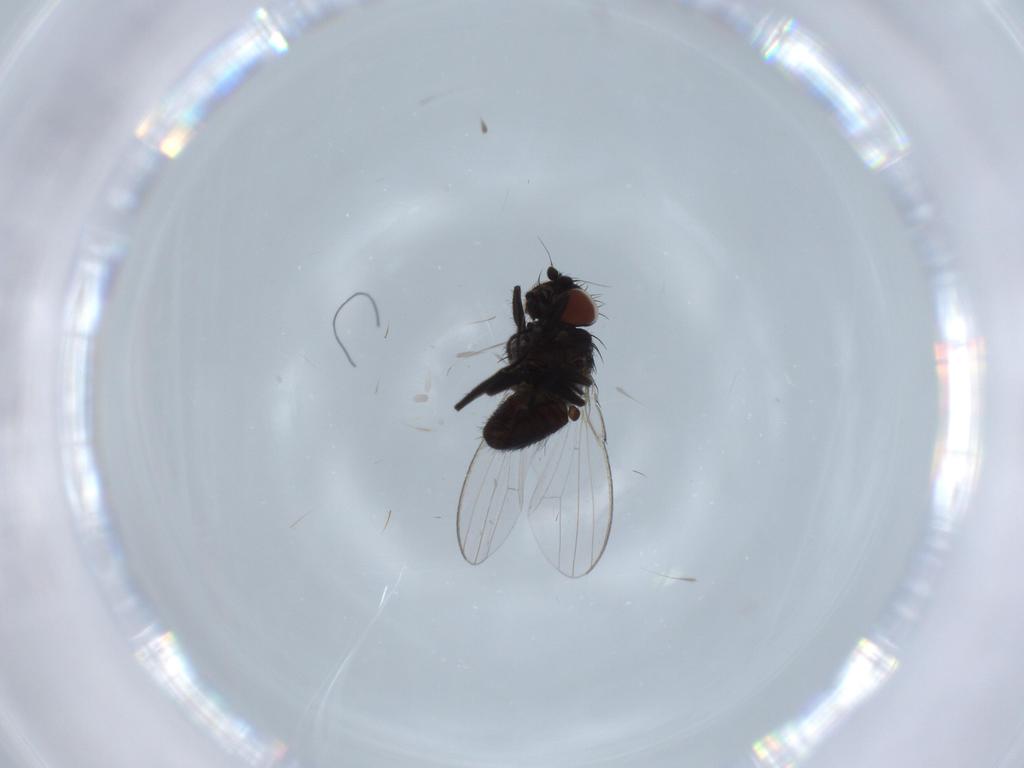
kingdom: Animalia
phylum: Arthropoda
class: Insecta
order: Diptera
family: Milichiidae
